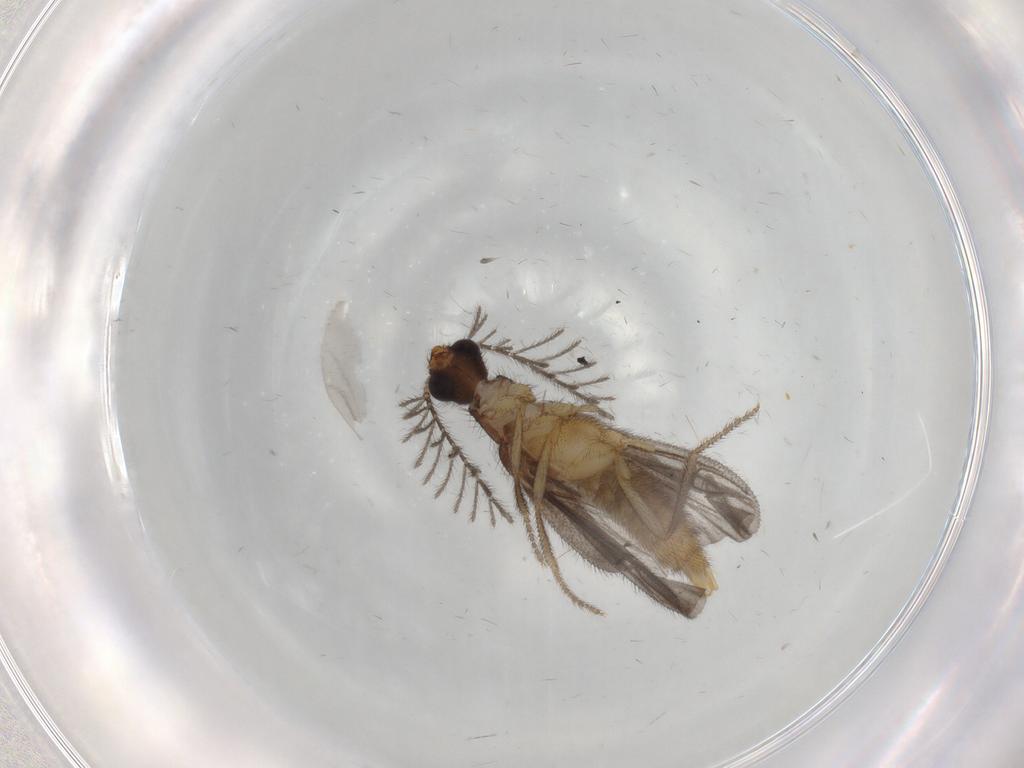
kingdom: Animalia
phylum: Arthropoda
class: Insecta
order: Coleoptera
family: Phengodidae
